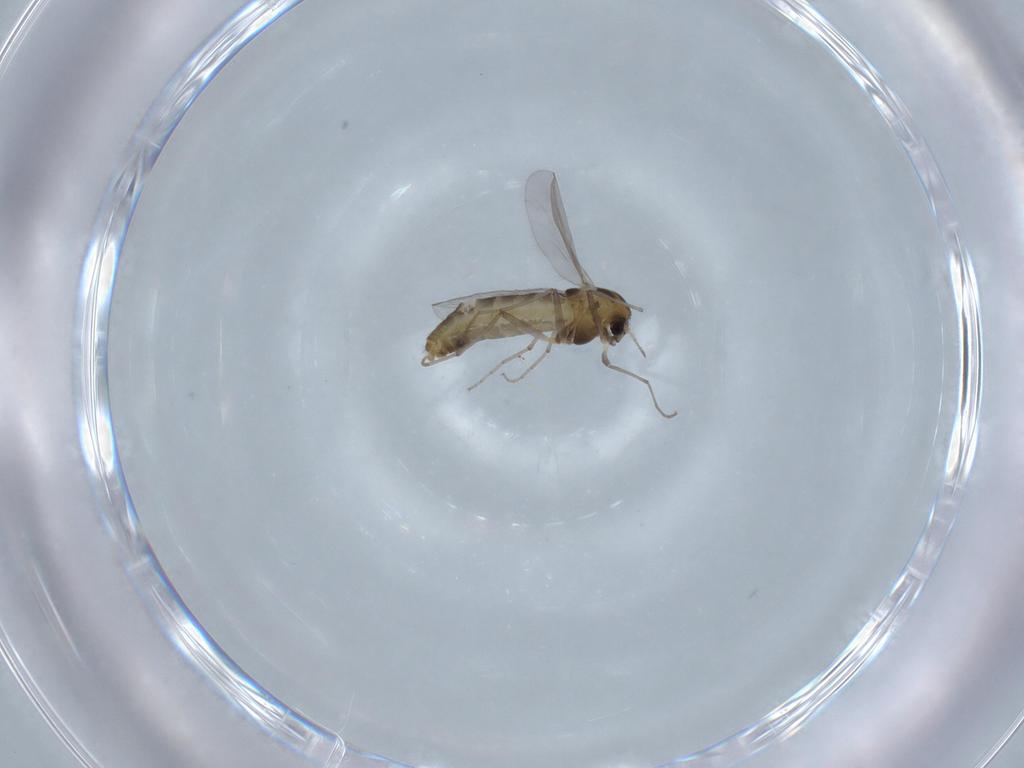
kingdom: Animalia
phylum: Arthropoda
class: Insecta
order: Diptera
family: Chironomidae
